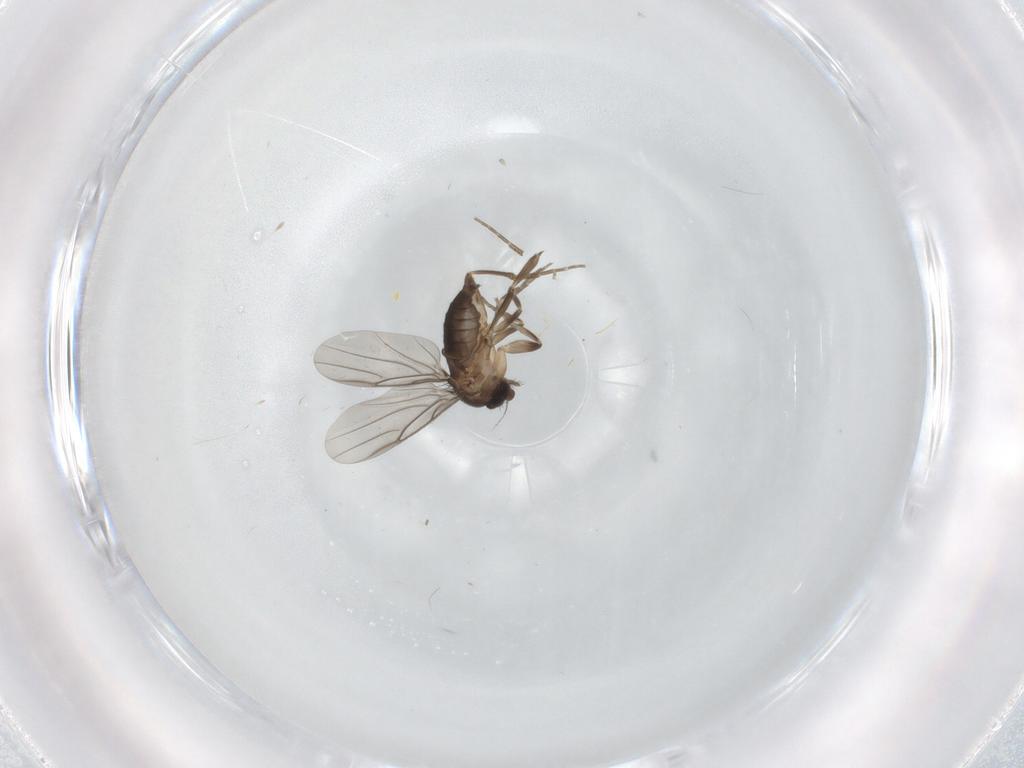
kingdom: Animalia
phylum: Arthropoda
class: Insecta
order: Diptera
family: Phoridae
